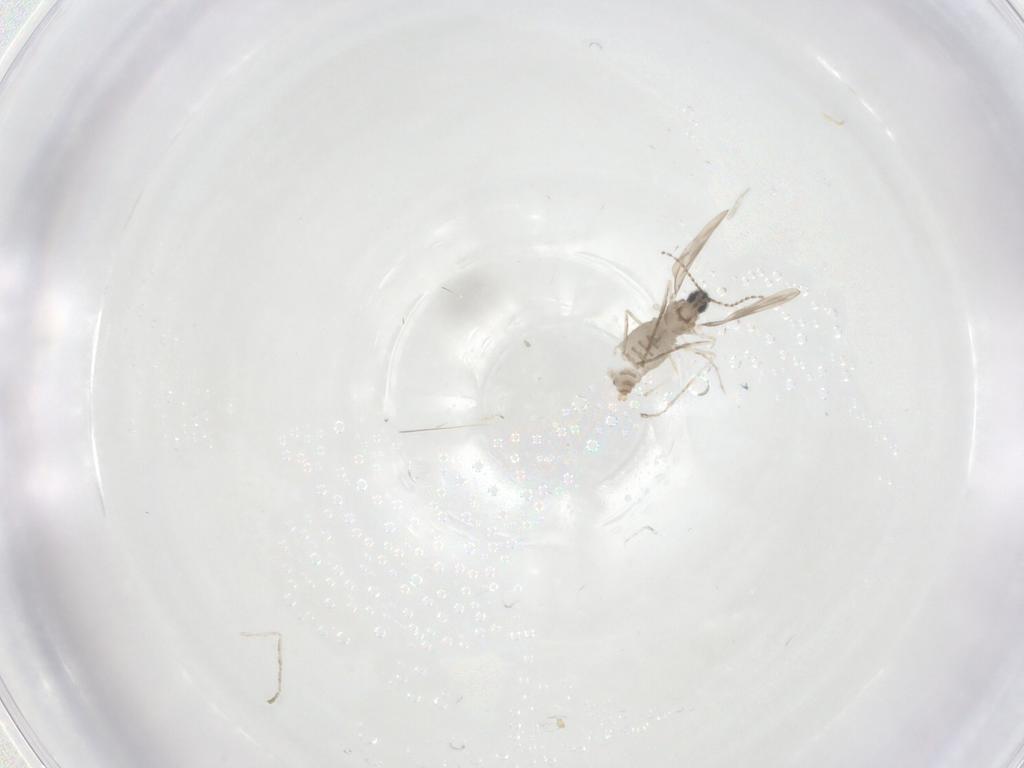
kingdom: Animalia
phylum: Arthropoda
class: Insecta
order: Diptera
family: Cecidomyiidae
